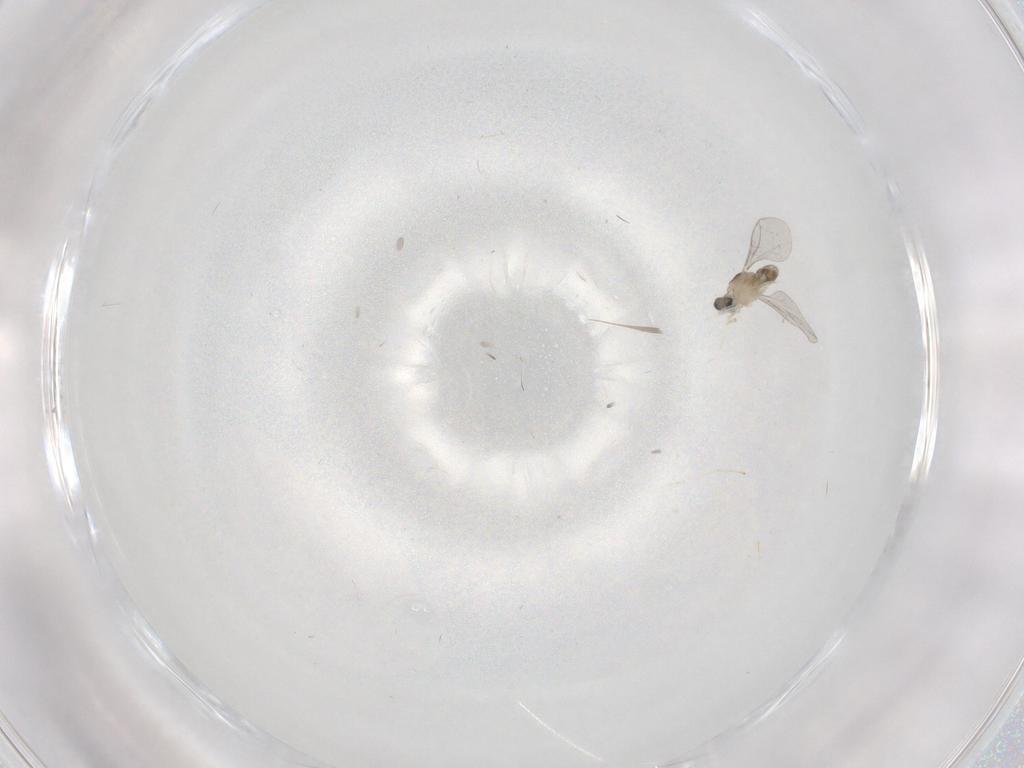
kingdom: Animalia
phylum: Arthropoda
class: Insecta
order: Diptera
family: Cecidomyiidae
